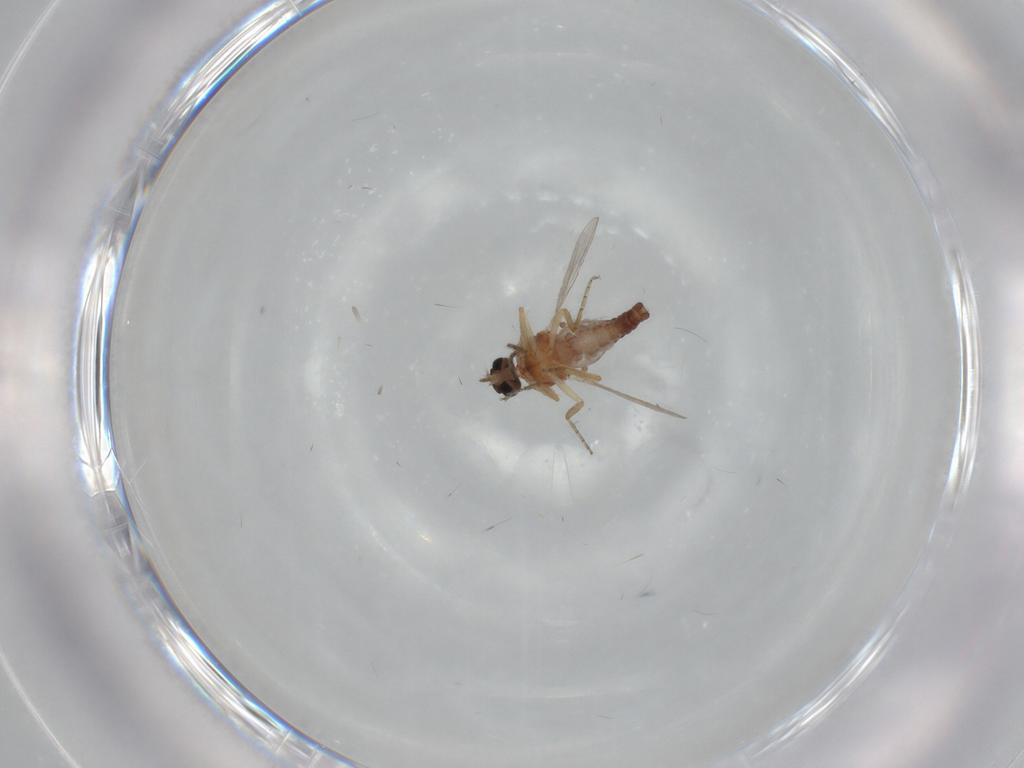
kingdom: Animalia
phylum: Arthropoda
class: Insecta
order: Diptera
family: Ceratopogonidae
